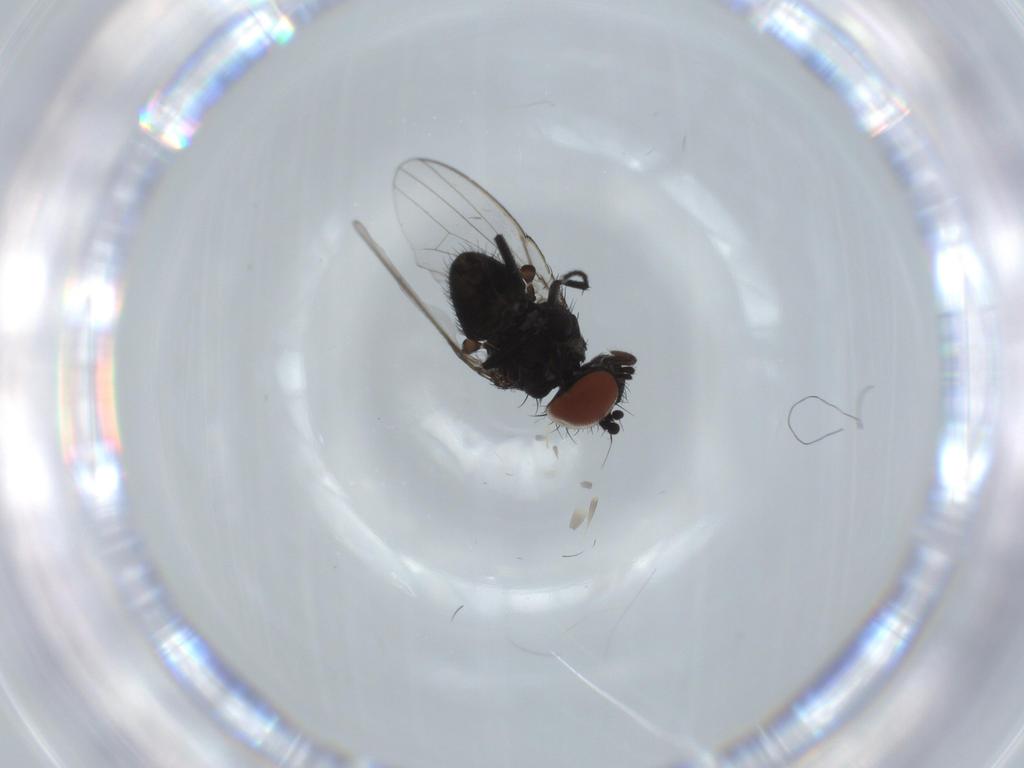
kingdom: Animalia
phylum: Arthropoda
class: Insecta
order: Diptera
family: Milichiidae
